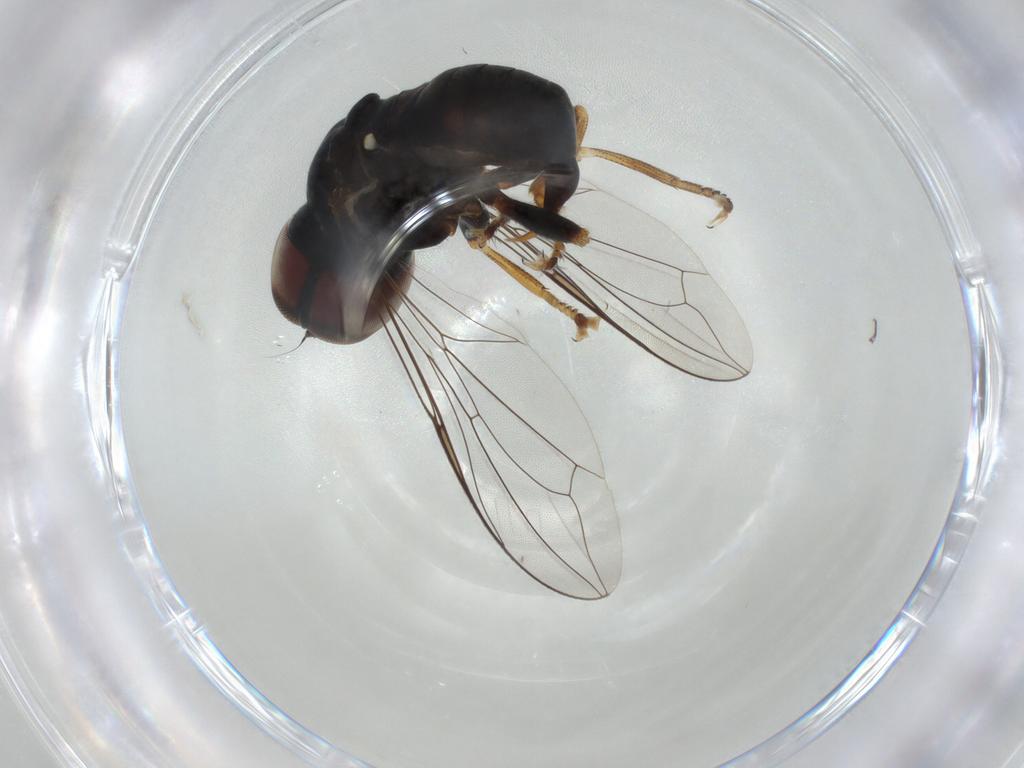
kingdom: Animalia
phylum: Arthropoda
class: Insecta
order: Diptera
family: Pipunculidae
